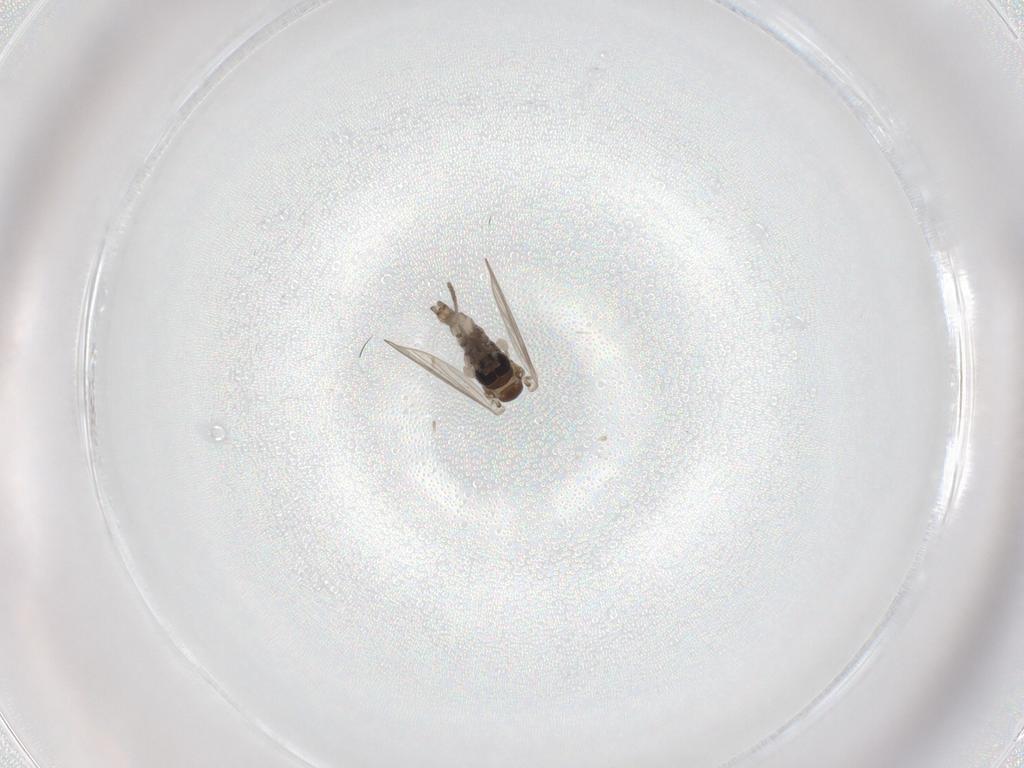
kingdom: Animalia
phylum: Arthropoda
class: Insecta
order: Diptera
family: Psychodidae
